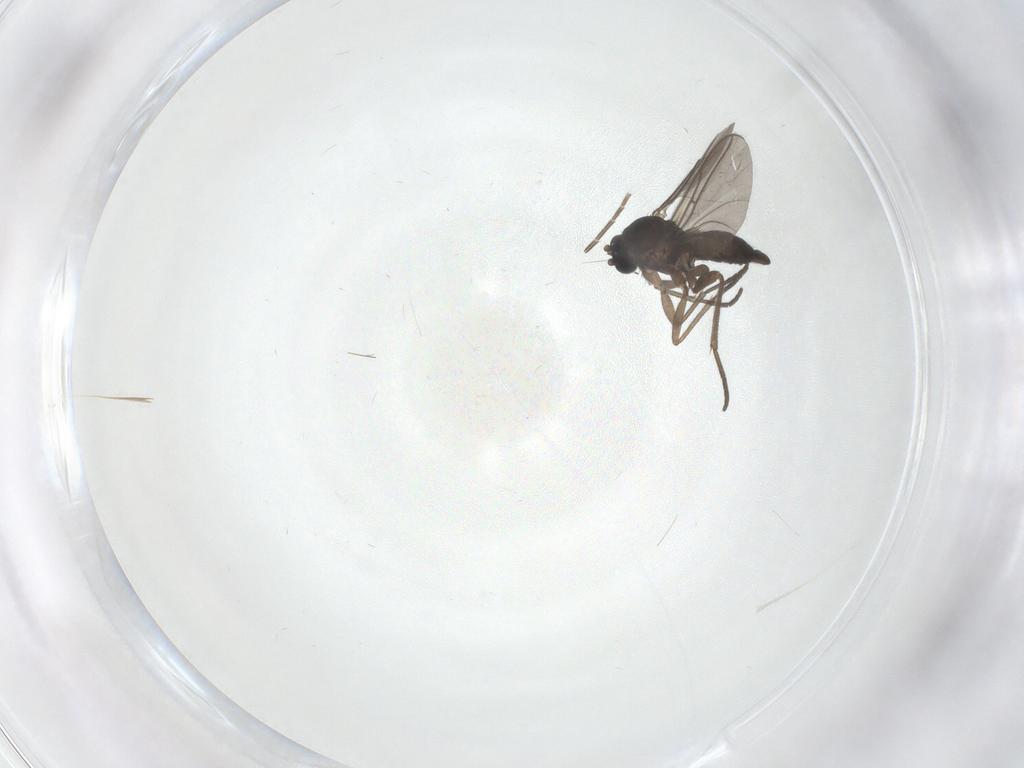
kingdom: Animalia
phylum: Arthropoda
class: Insecta
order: Diptera
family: Sciaridae
